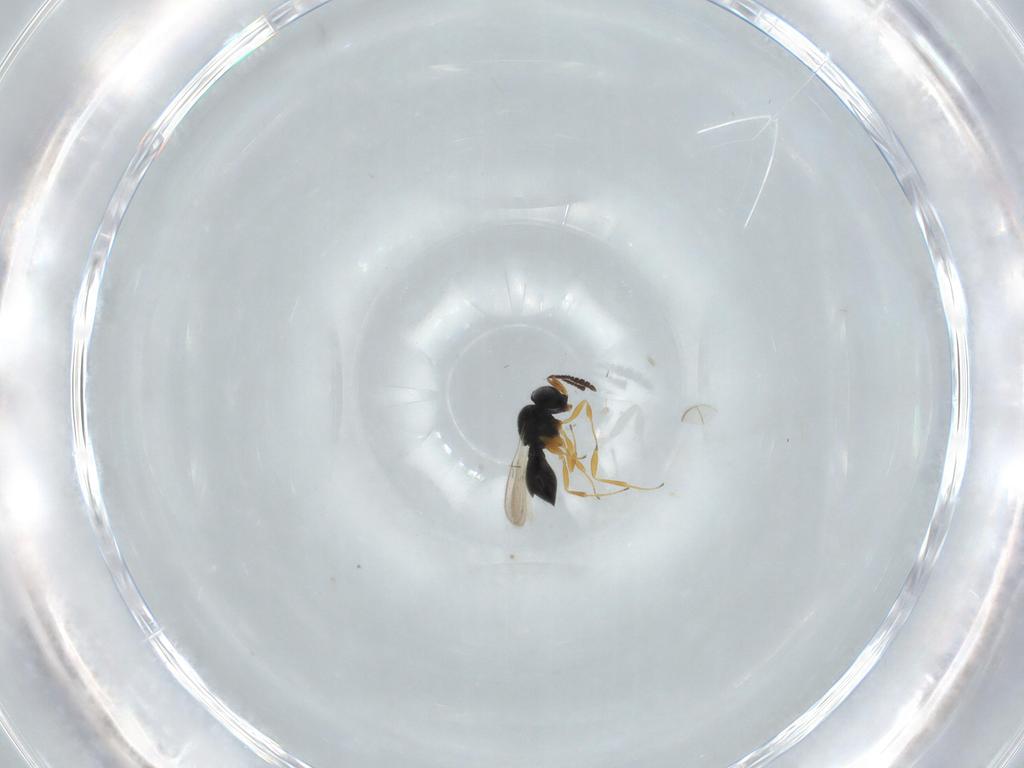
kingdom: Animalia
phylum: Arthropoda
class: Insecta
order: Hymenoptera
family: Scelionidae
